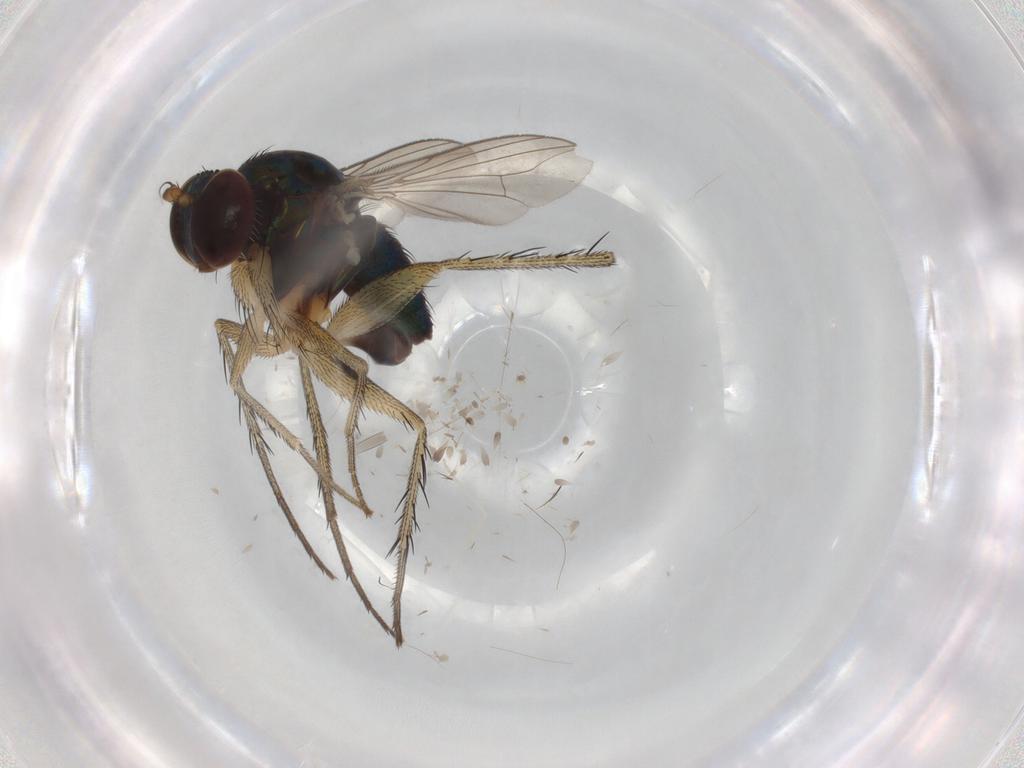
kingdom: Animalia
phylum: Arthropoda
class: Insecta
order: Diptera
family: Dolichopodidae
